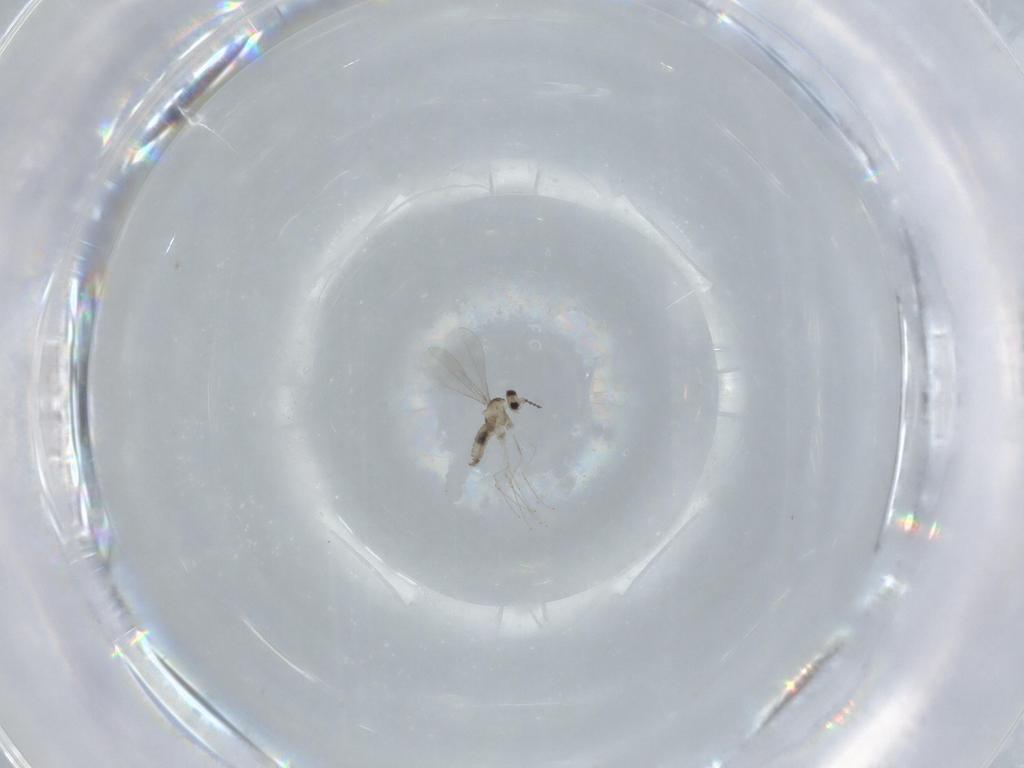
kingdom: Animalia
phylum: Arthropoda
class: Insecta
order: Diptera
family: Cecidomyiidae
